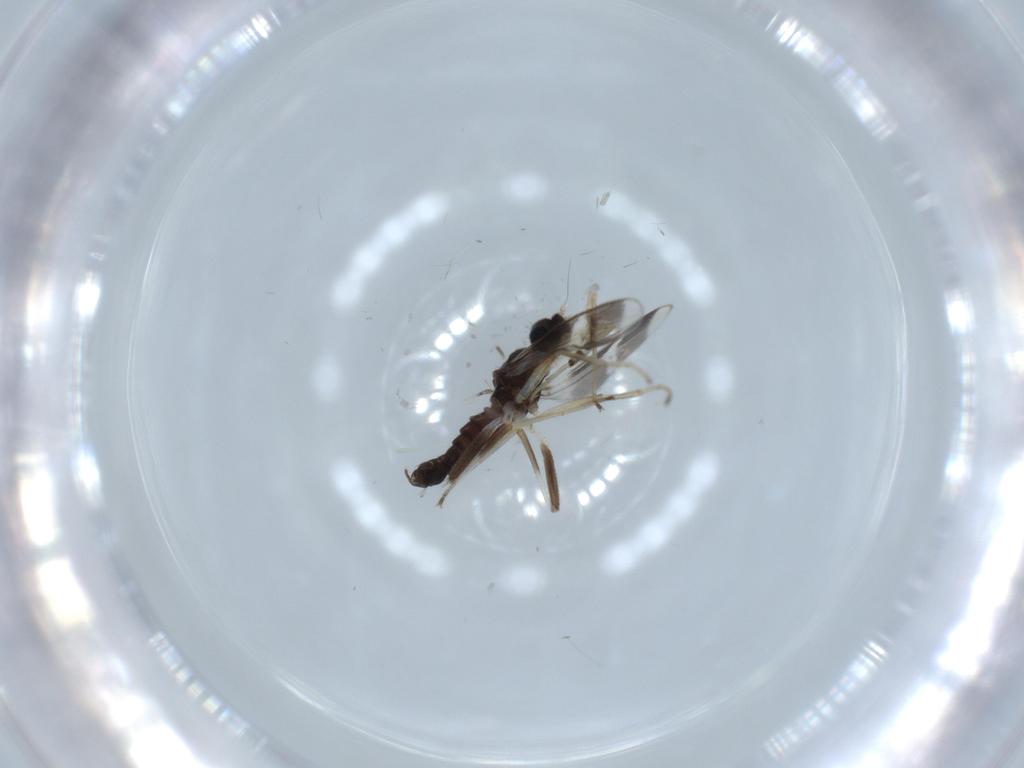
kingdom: Animalia
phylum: Arthropoda
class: Insecta
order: Diptera
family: Hybotidae
